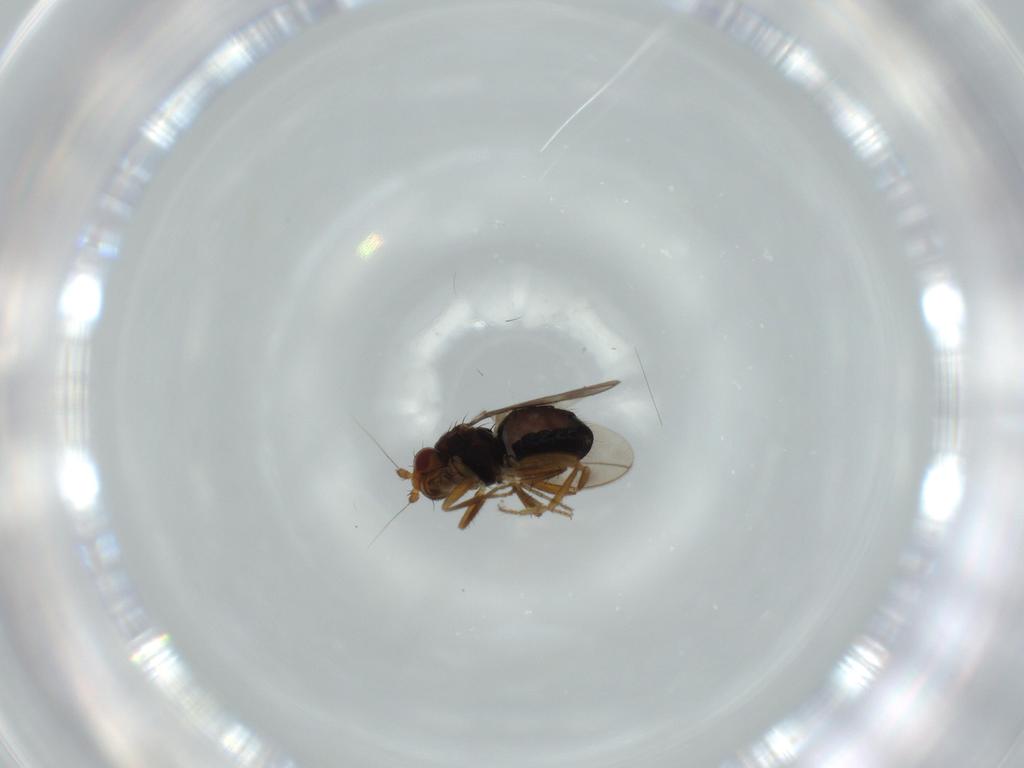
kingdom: Animalia
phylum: Arthropoda
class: Insecta
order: Diptera
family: Sphaeroceridae
